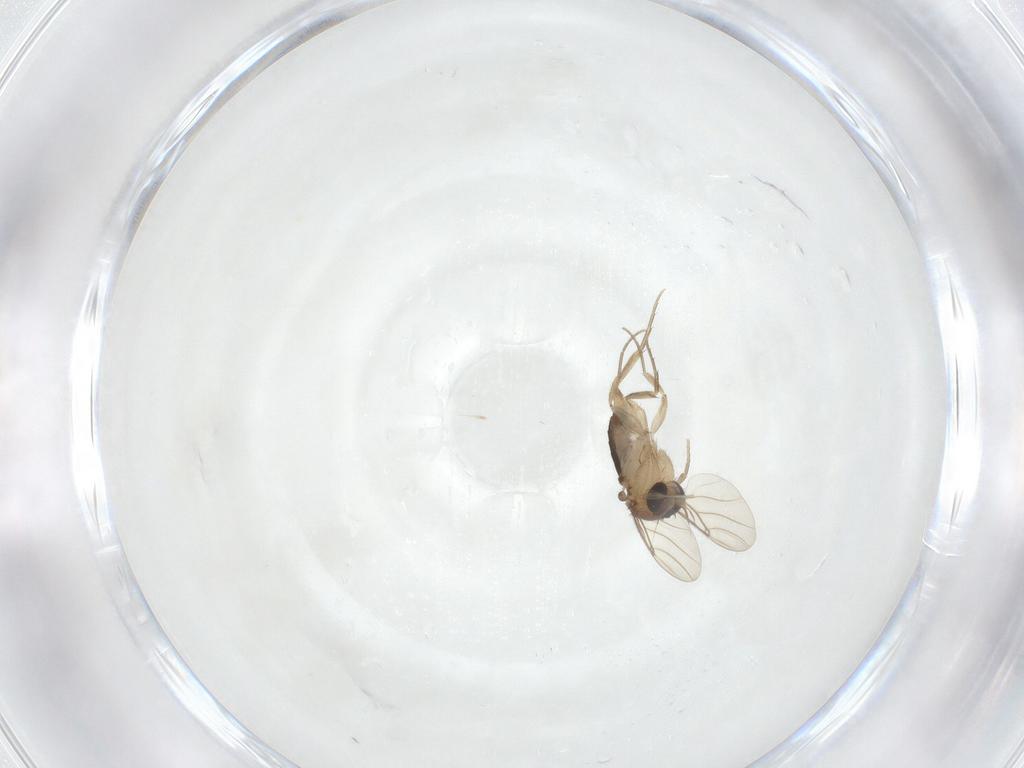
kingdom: Animalia
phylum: Arthropoda
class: Insecta
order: Diptera
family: Phoridae
